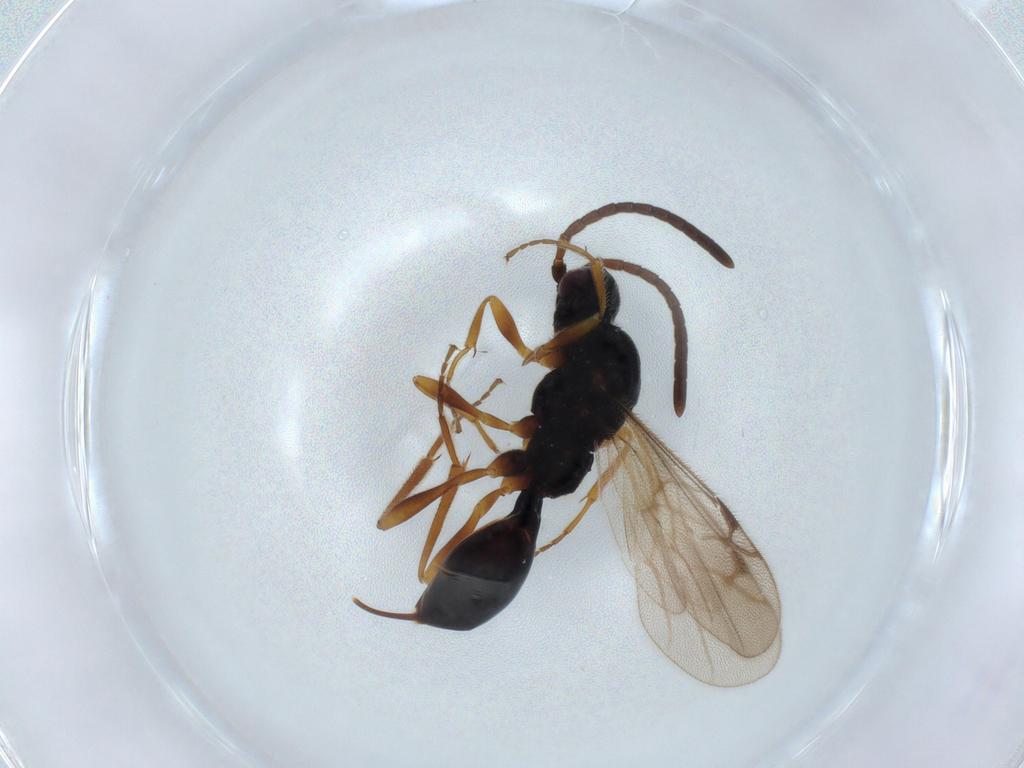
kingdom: Animalia
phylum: Arthropoda
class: Insecta
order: Hymenoptera
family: Proctotrupidae
